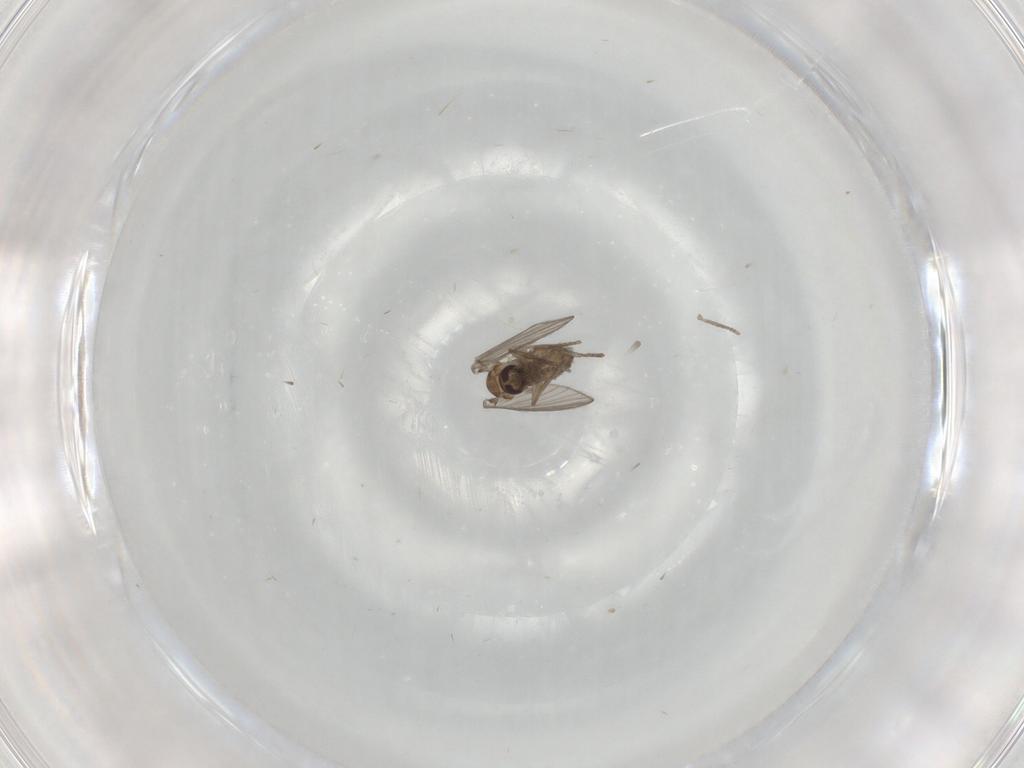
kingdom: Animalia
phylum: Arthropoda
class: Insecta
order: Diptera
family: Psychodidae
